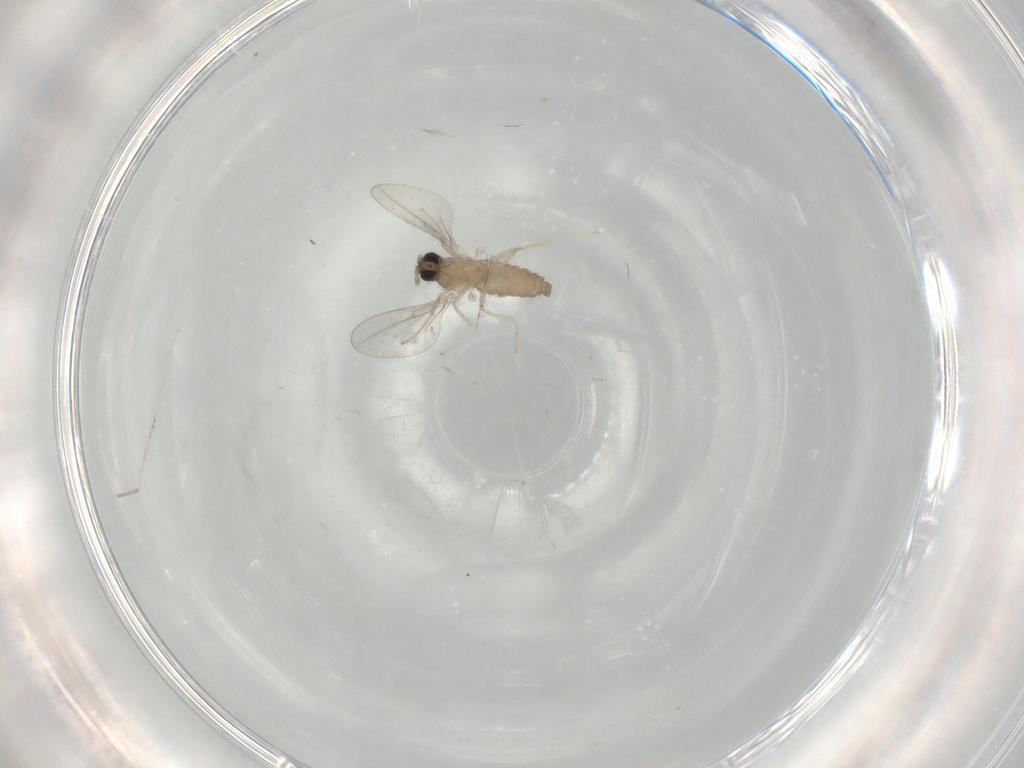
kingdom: Animalia
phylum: Arthropoda
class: Insecta
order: Diptera
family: Cecidomyiidae
